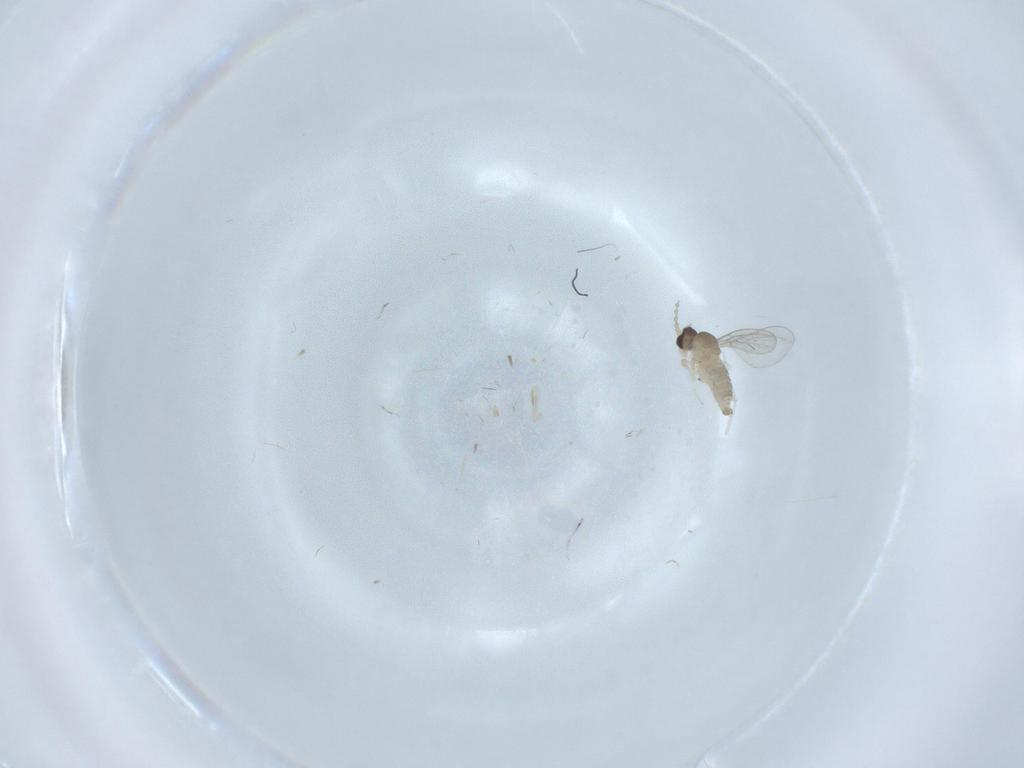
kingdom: Animalia
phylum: Arthropoda
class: Insecta
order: Diptera
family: Cecidomyiidae
